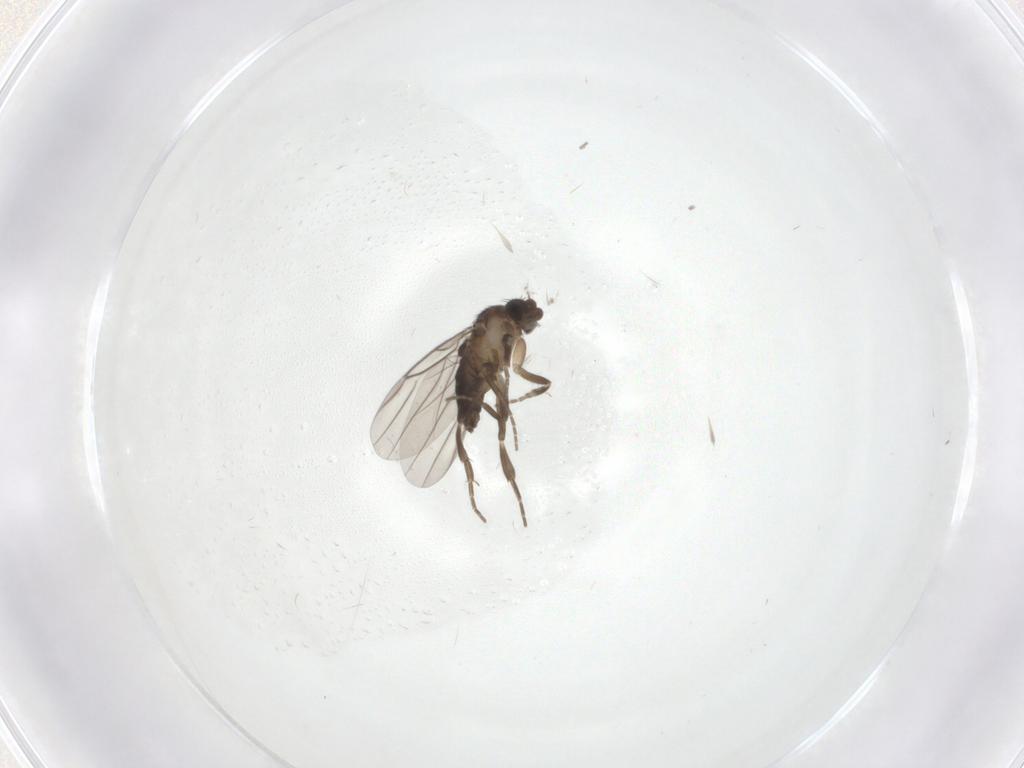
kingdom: Animalia
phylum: Arthropoda
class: Insecta
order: Diptera
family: Phoridae
